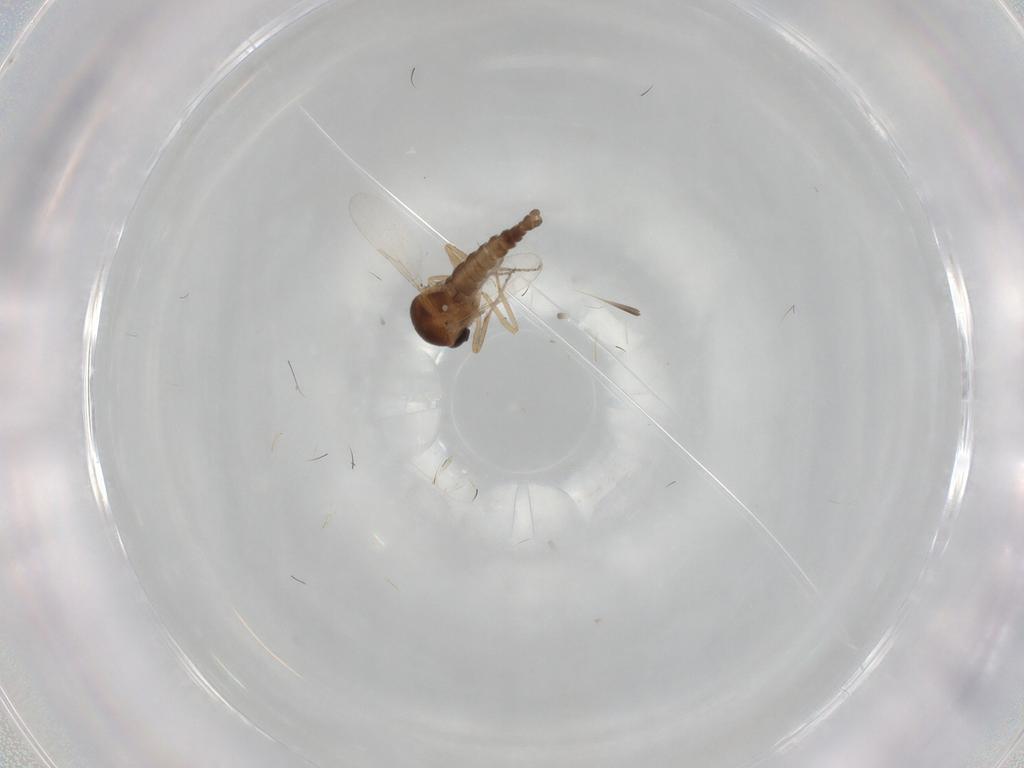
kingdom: Animalia
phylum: Arthropoda
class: Insecta
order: Diptera
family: Ceratopogonidae
